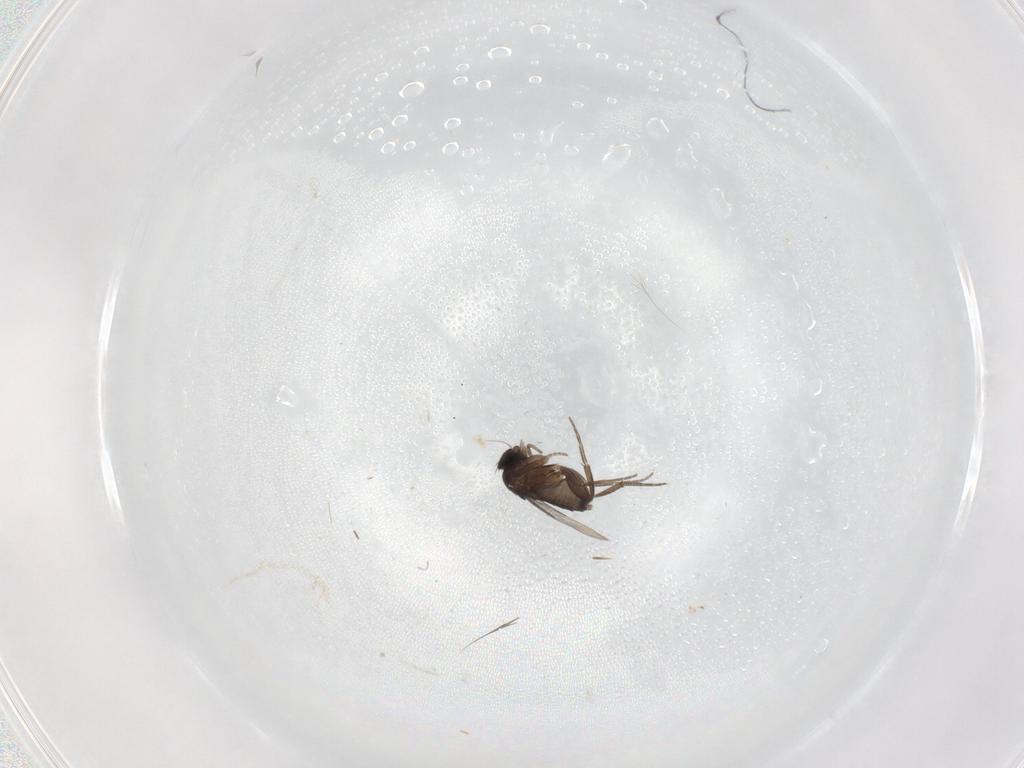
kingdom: Animalia
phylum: Arthropoda
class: Insecta
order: Diptera
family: Phoridae
